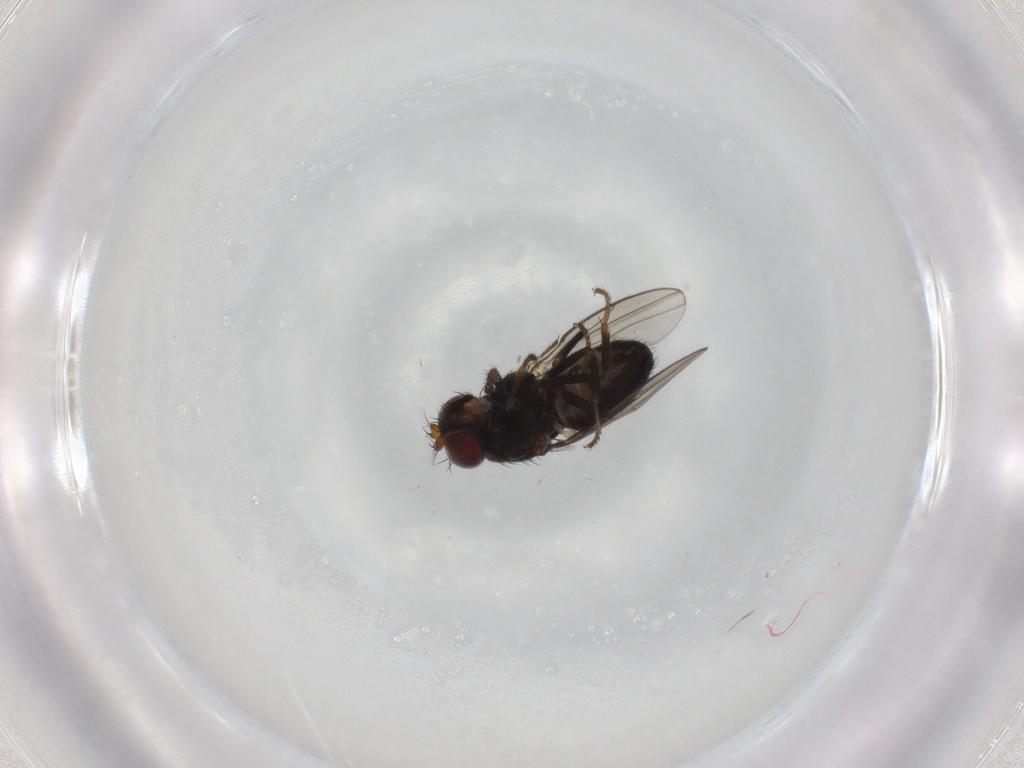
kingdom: Animalia
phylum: Arthropoda
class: Insecta
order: Diptera
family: Ephydridae
